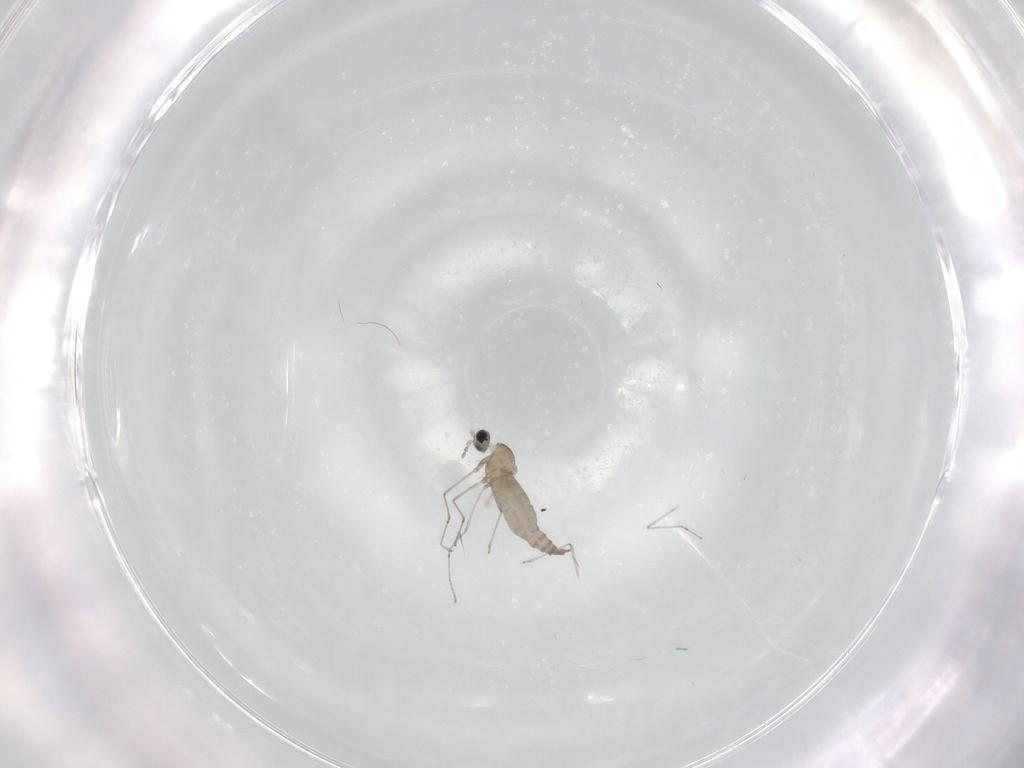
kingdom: Animalia
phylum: Arthropoda
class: Insecta
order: Diptera
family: Cecidomyiidae
